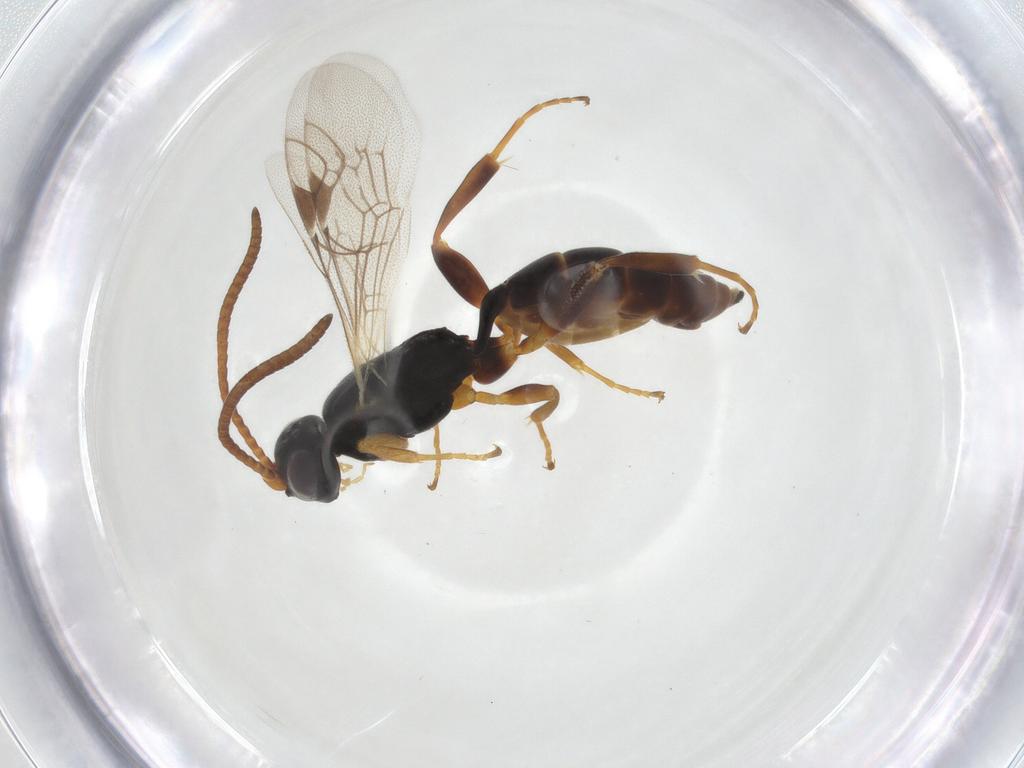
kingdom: Animalia
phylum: Arthropoda
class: Insecta
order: Hymenoptera
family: Ichneumonidae
